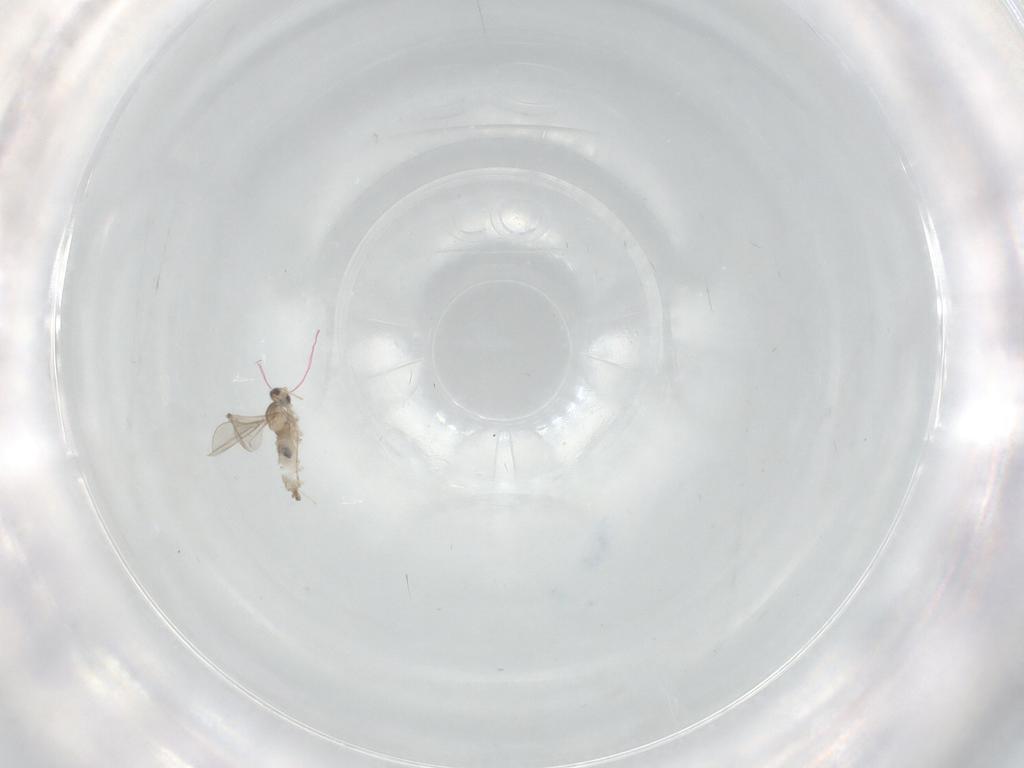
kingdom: Animalia
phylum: Arthropoda
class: Insecta
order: Diptera
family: Cecidomyiidae
